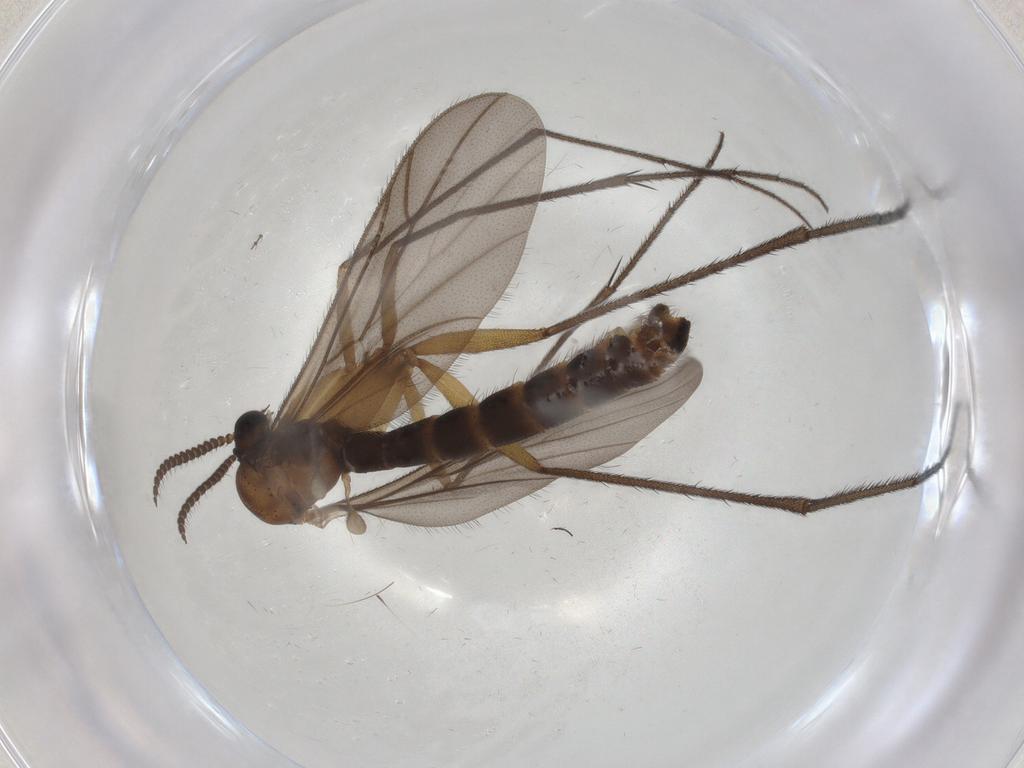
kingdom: Animalia
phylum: Arthropoda
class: Insecta
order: Diptera
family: Ditomyiidae
